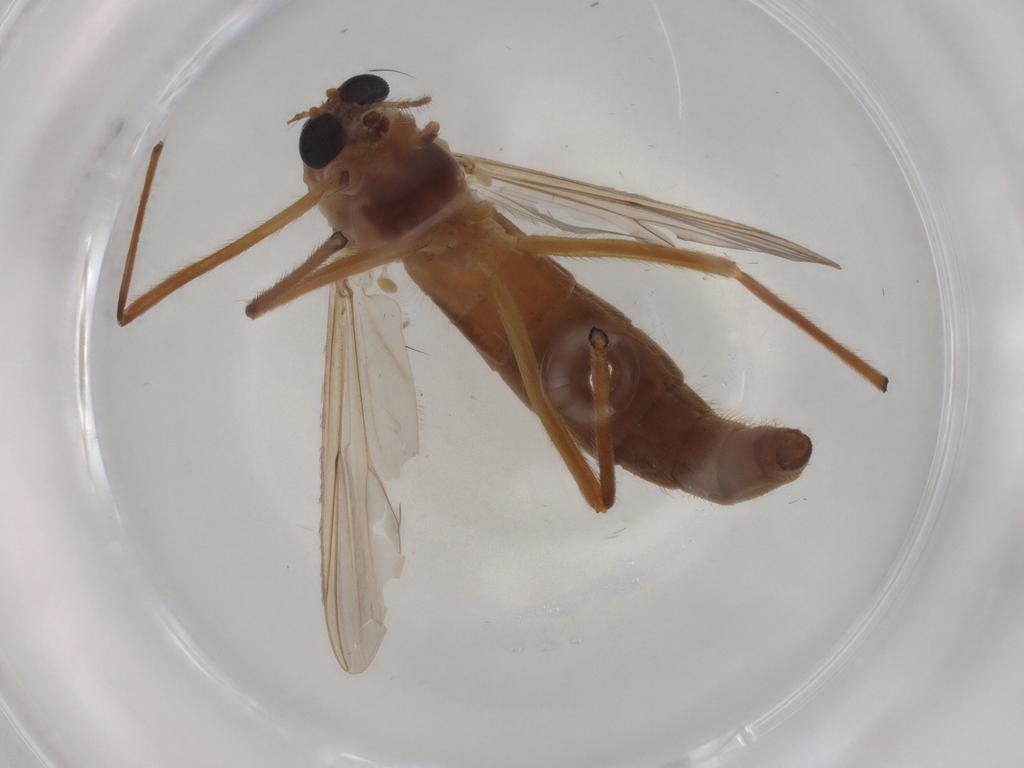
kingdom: Animalia
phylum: Arthropoda
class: Insecta
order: Diptera
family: Chironomidae
